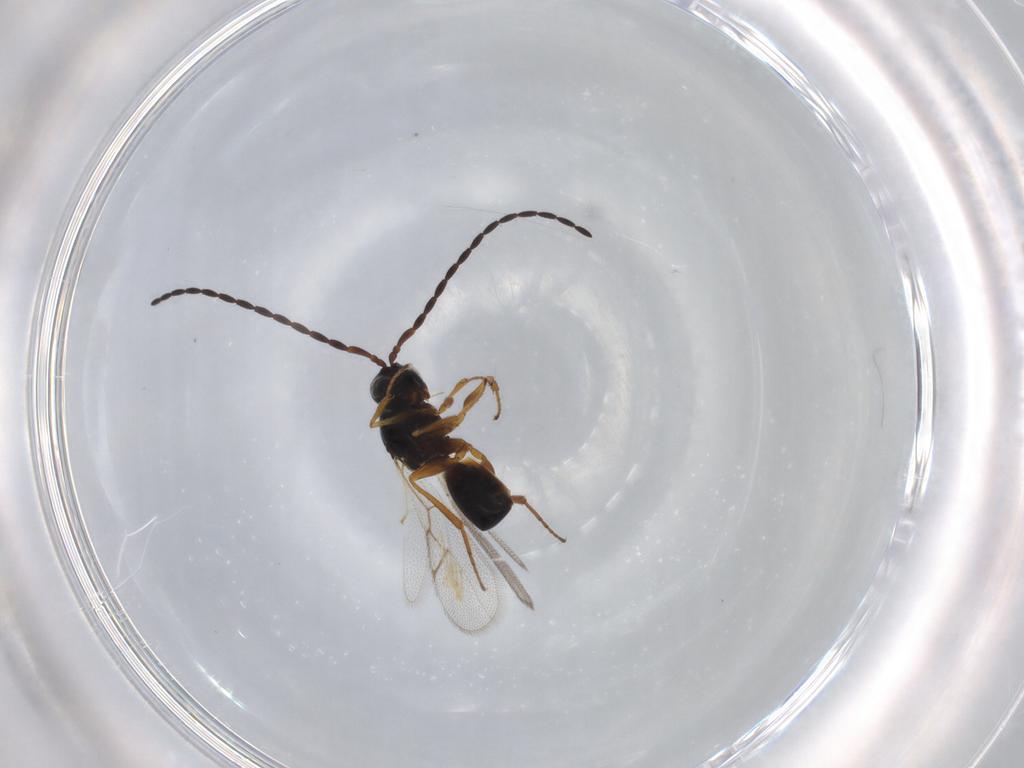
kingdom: Animalia
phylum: Arthropoda
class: Insecta
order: Hymenoptera
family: Figitidae
